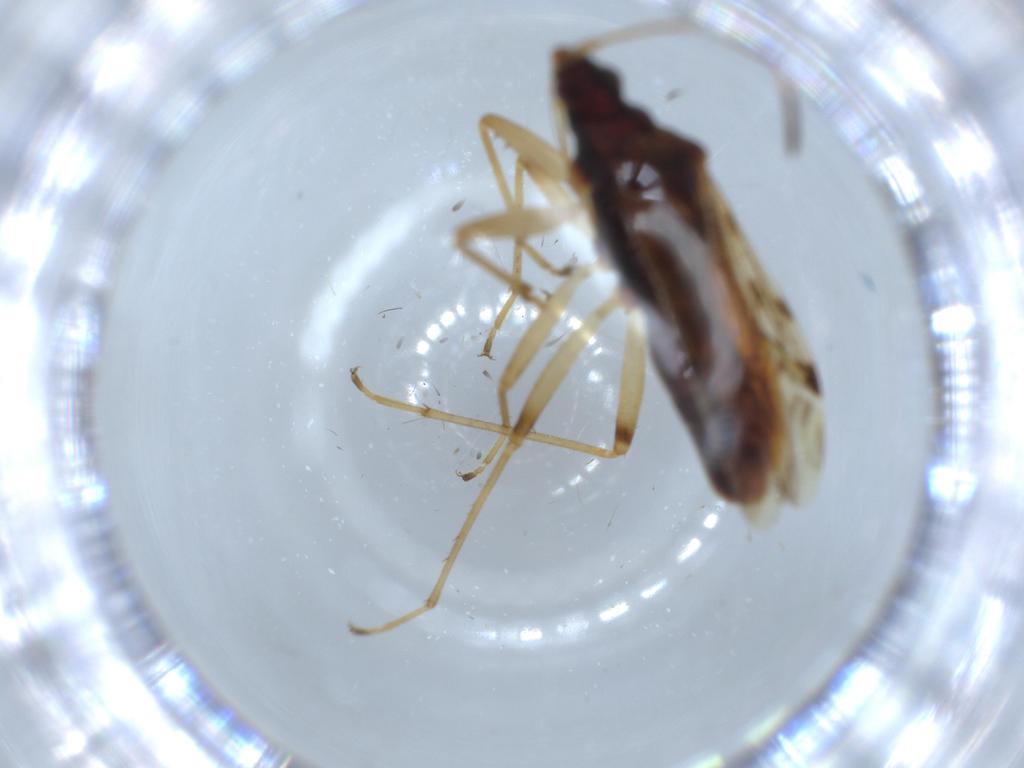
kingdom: Animalia
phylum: Arthropoda
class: Insecta
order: Hemiptera
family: Rhyparochromidae
